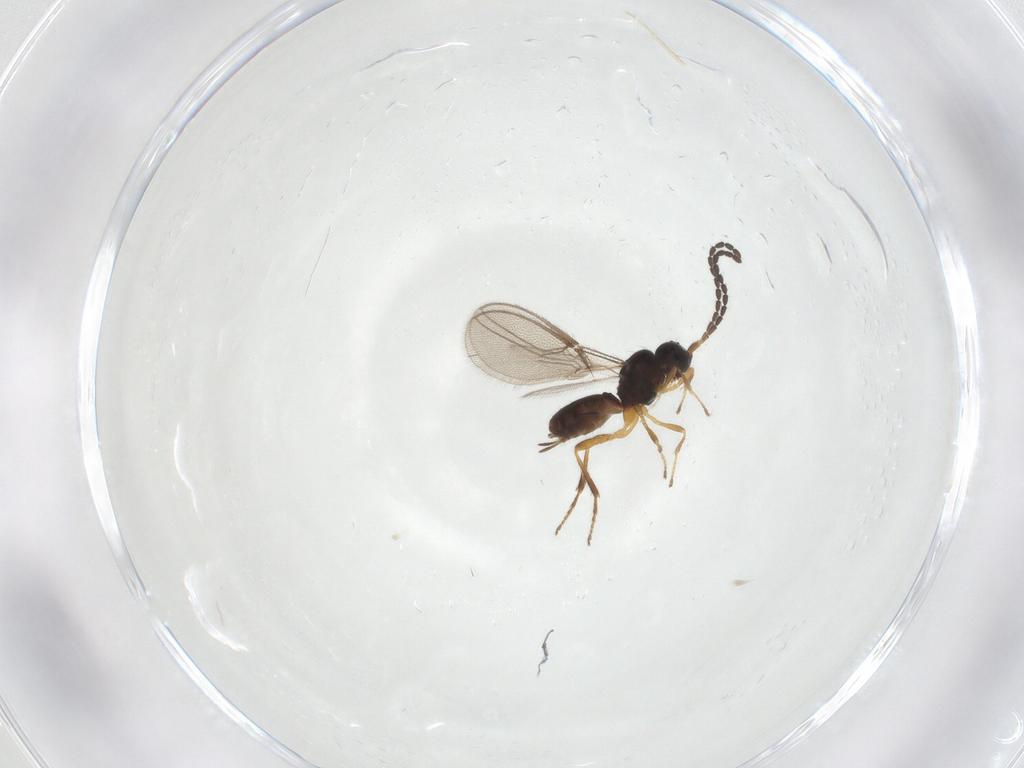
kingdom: Animalia
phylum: Arthropoda
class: Insecta
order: Hymenoptera
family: Braconidae
